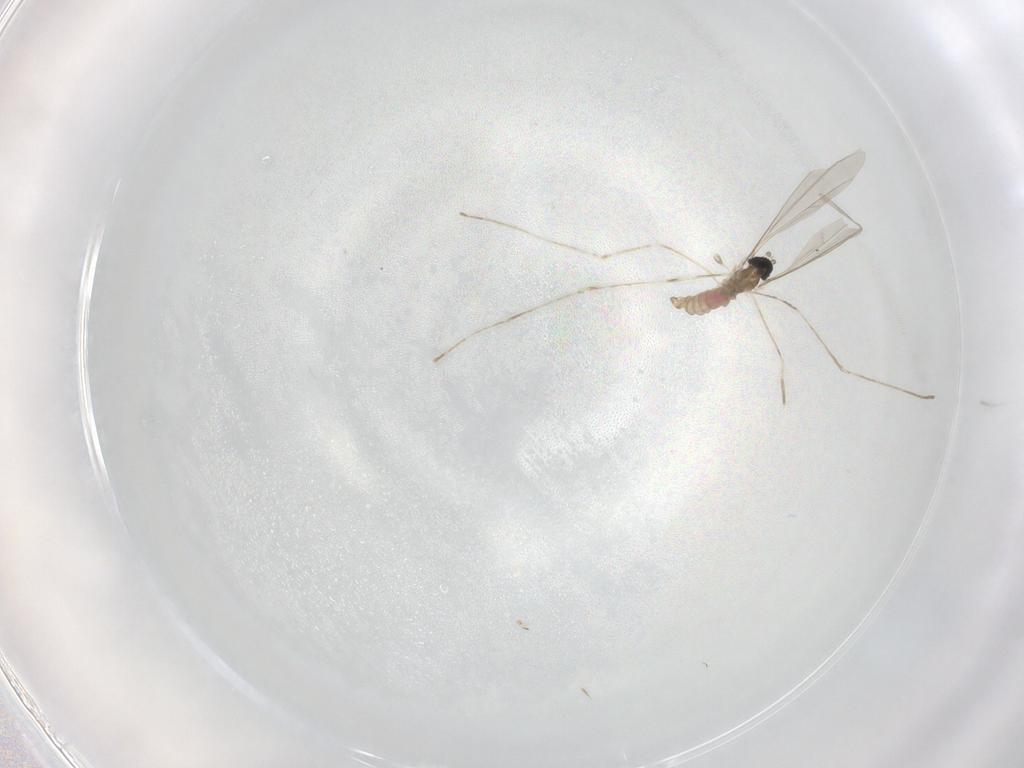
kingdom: Animalia
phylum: Arthropoda
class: Insecta
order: Diptera
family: Cecidomyiidae
